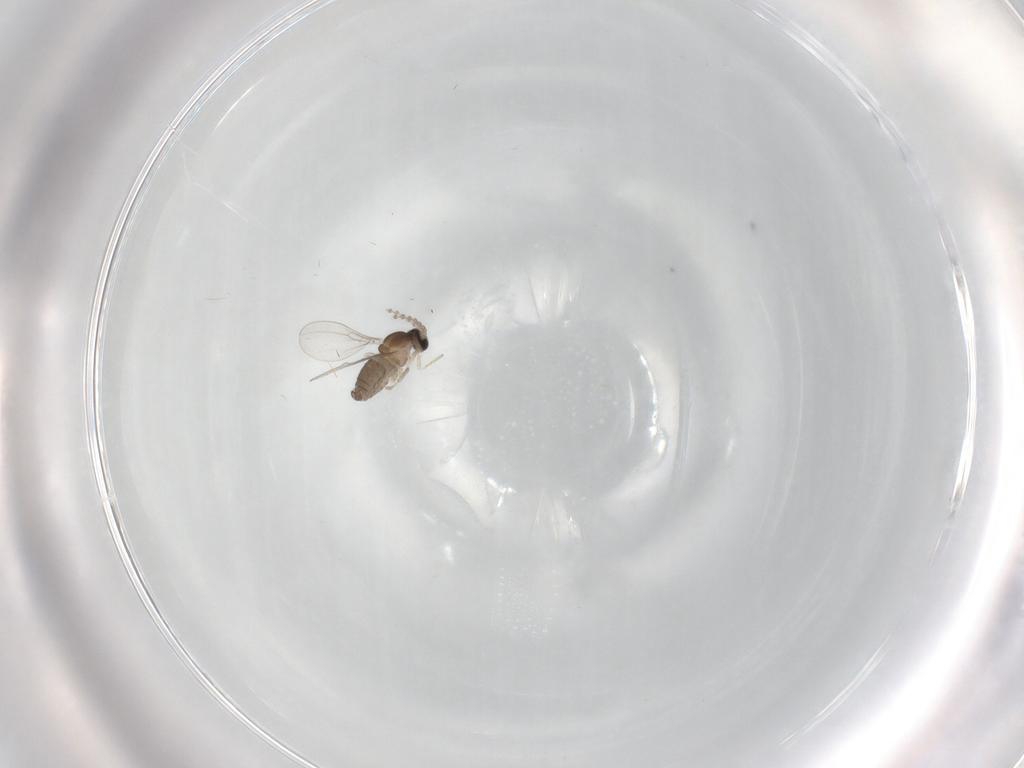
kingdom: Animalia
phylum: Arthropoda
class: Insecta
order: Diptera
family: Cecidomyiidae
